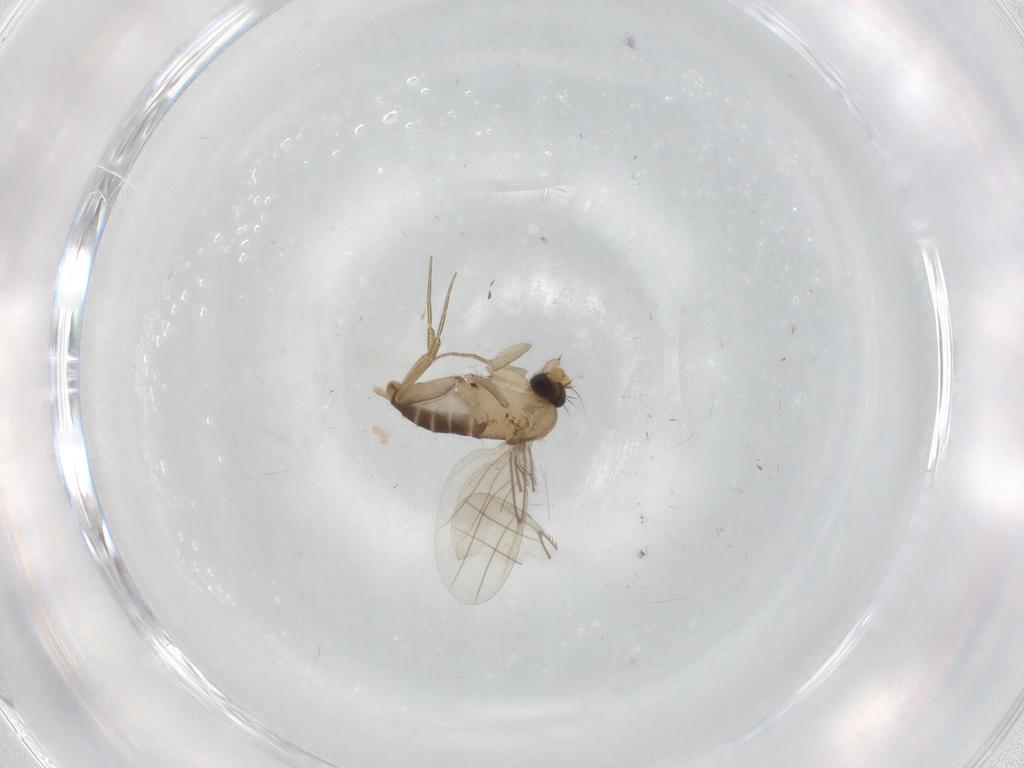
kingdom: Animalia
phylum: Arthropoda
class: Insecta
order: Diptera
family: Phoridae
